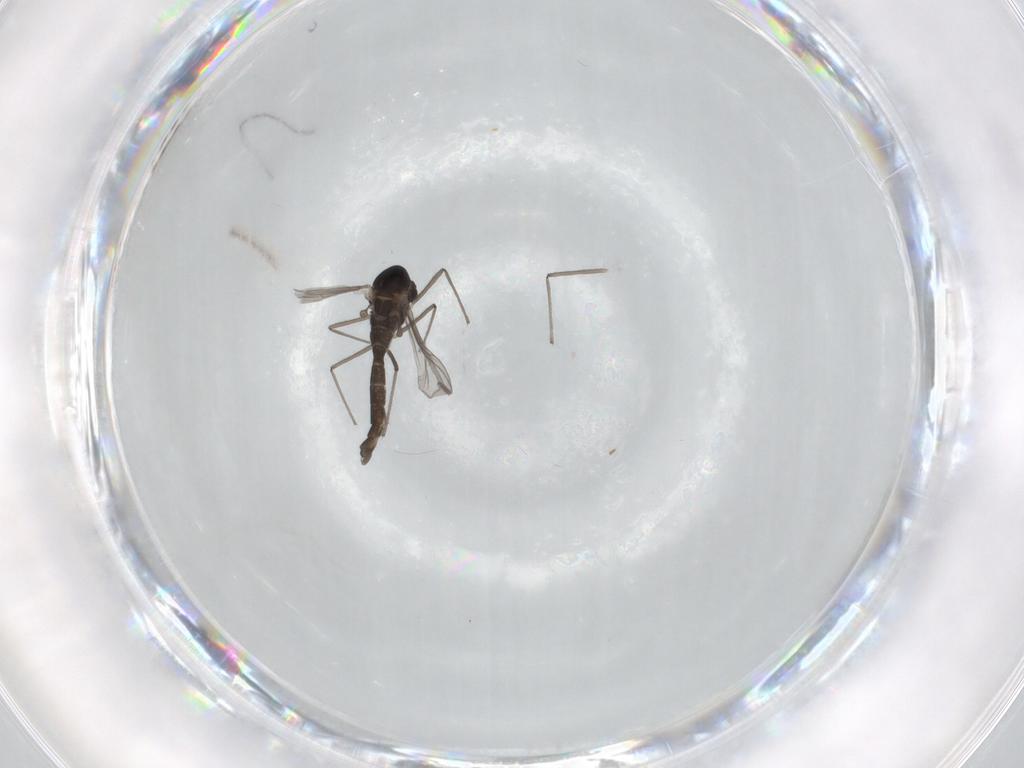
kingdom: Animalia
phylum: Arthropoda
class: Insecta
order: Diptera
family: Chironomidae
